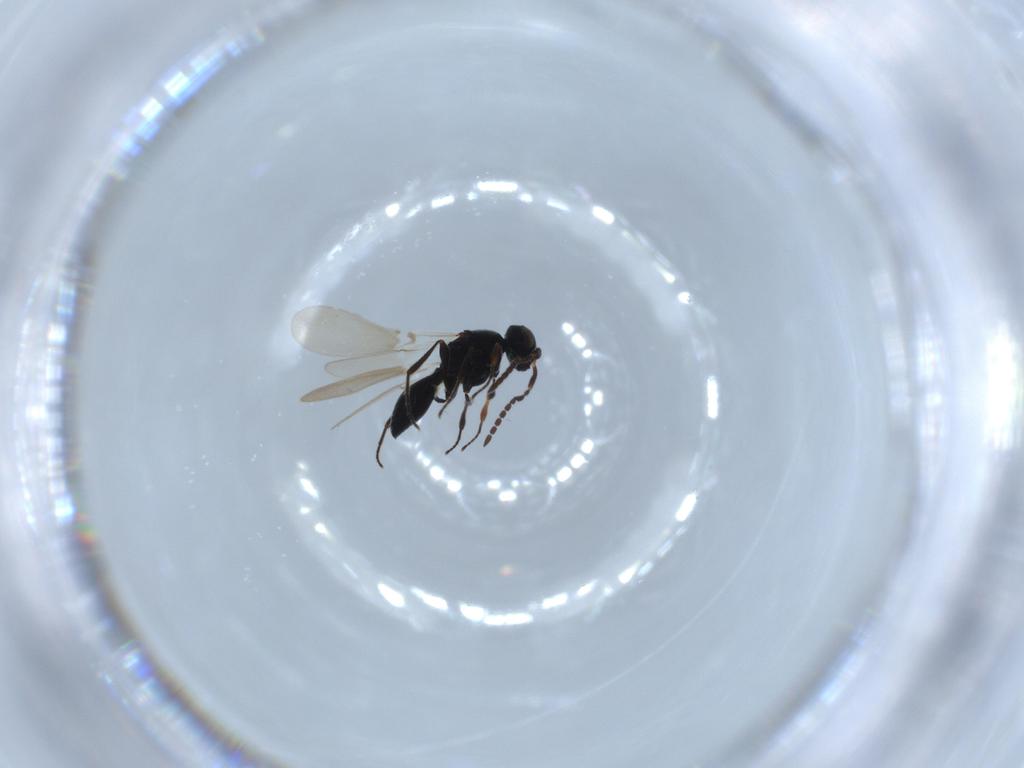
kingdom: Animalia
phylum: Arthropoda
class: Insecta
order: Hymenoptera
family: Platygastridae
